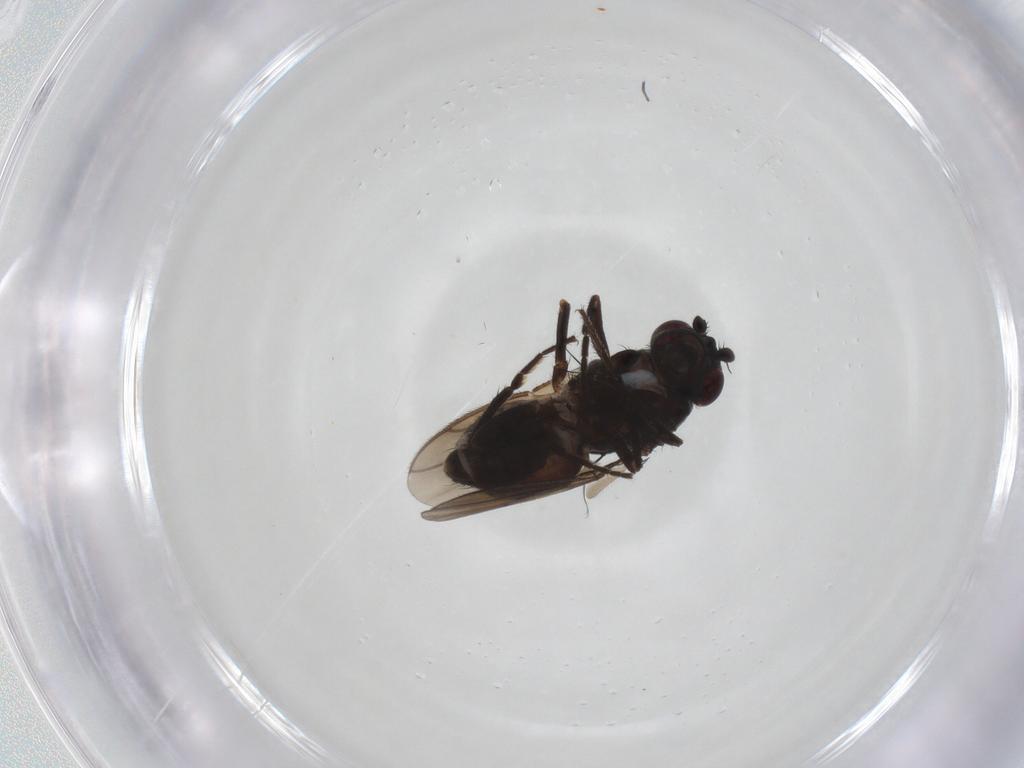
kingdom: Animalia
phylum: Arthropoda
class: Insecta
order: Diptera
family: Sphaeroceridae
